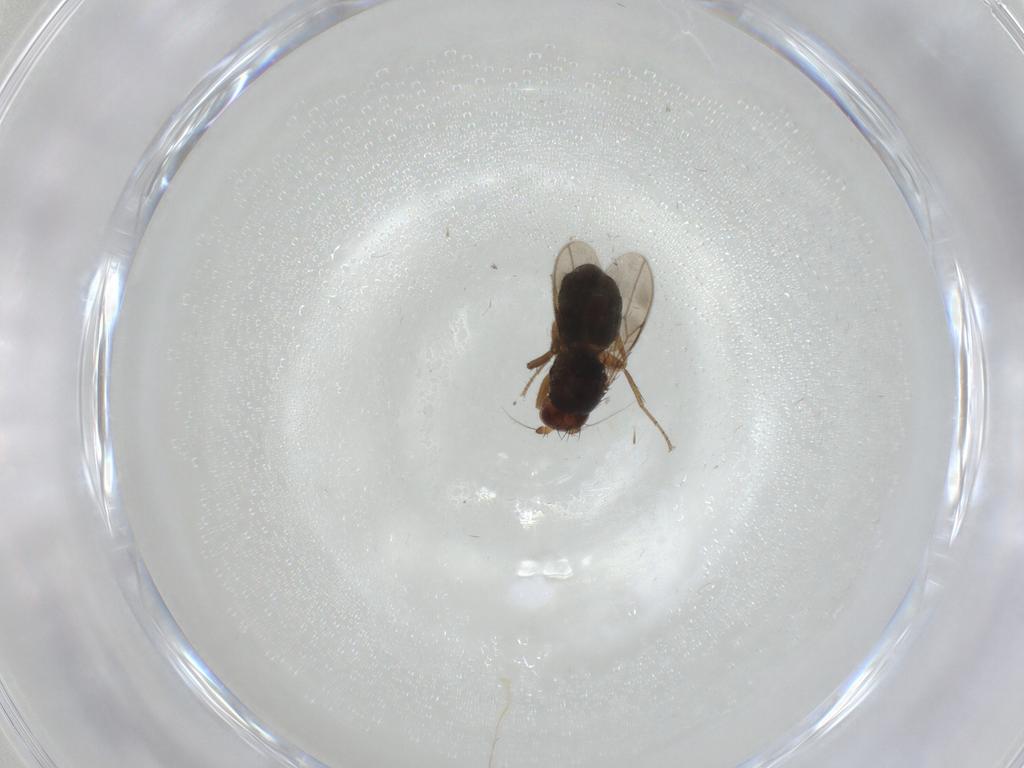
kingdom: Animalia
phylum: Arthropoda
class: Insecta
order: Diptera
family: Sphaeroceridae
